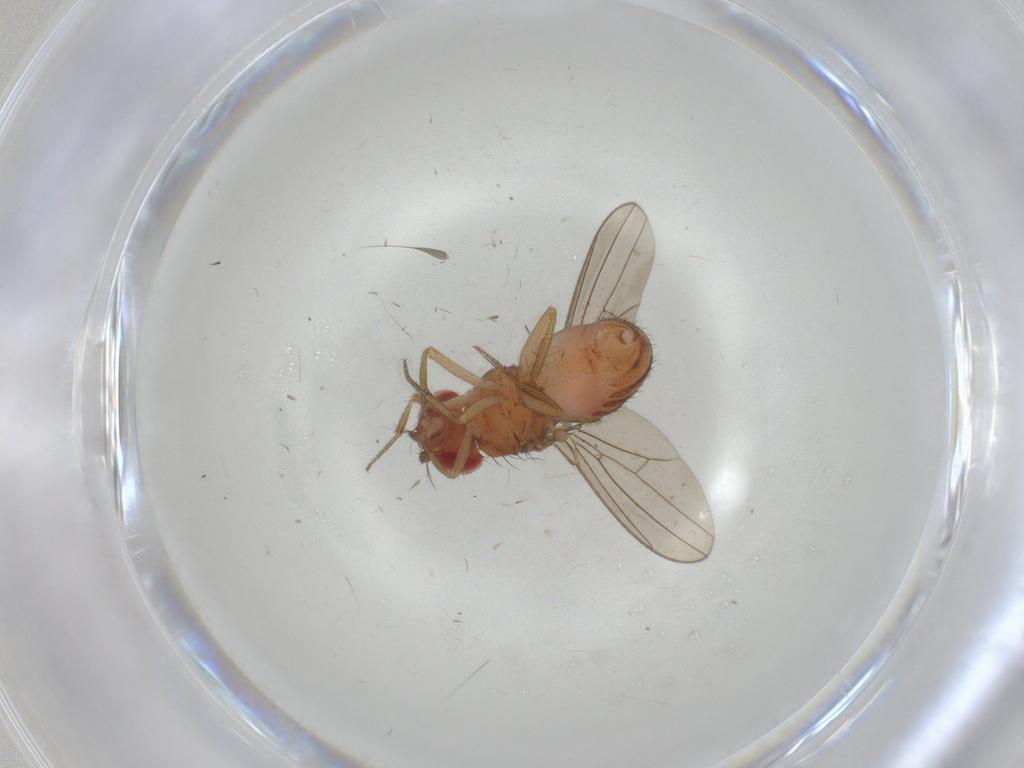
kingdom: Animalia
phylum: Arthropoda
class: Insecta
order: Diptera
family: Drosophilidae
